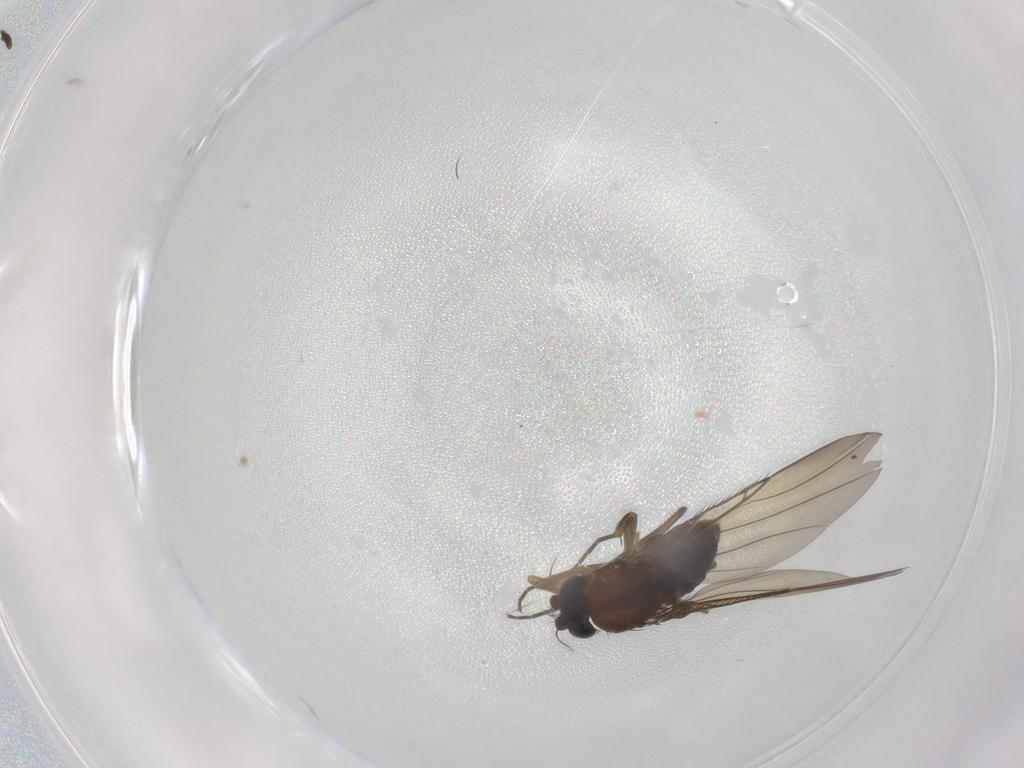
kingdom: Animalia
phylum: Arthropoda
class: Insecta
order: Diptera
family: Phoridae
